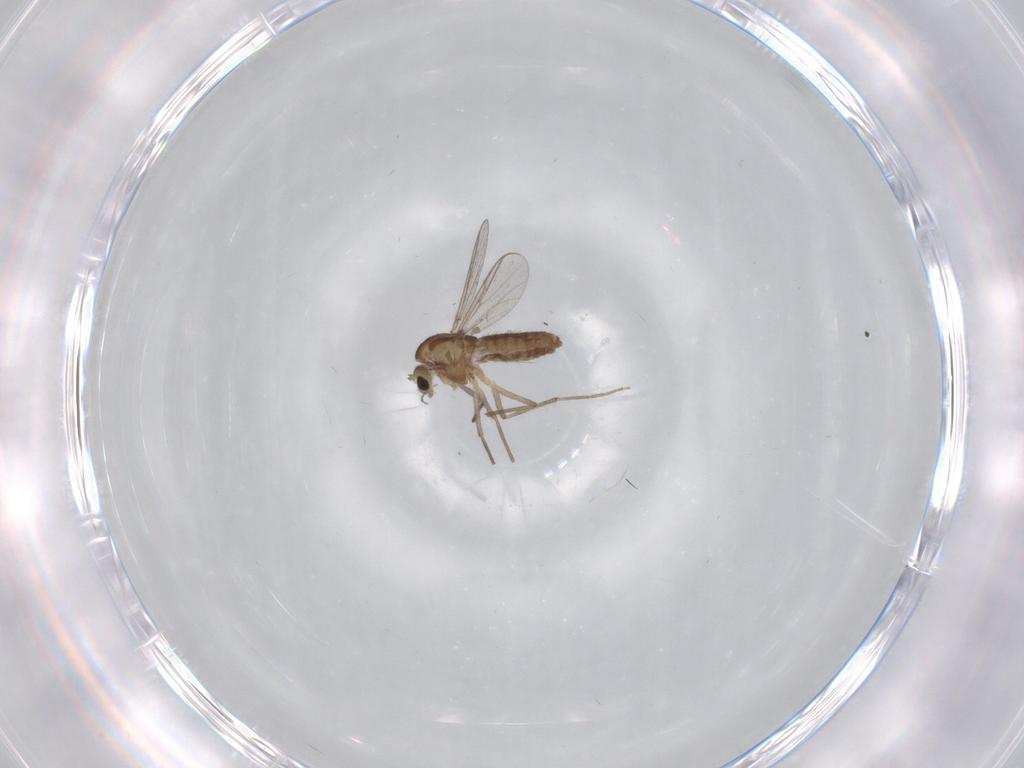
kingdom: Animalia
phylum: Arthropoda
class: Insecta
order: Diptera
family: Chironomidae
